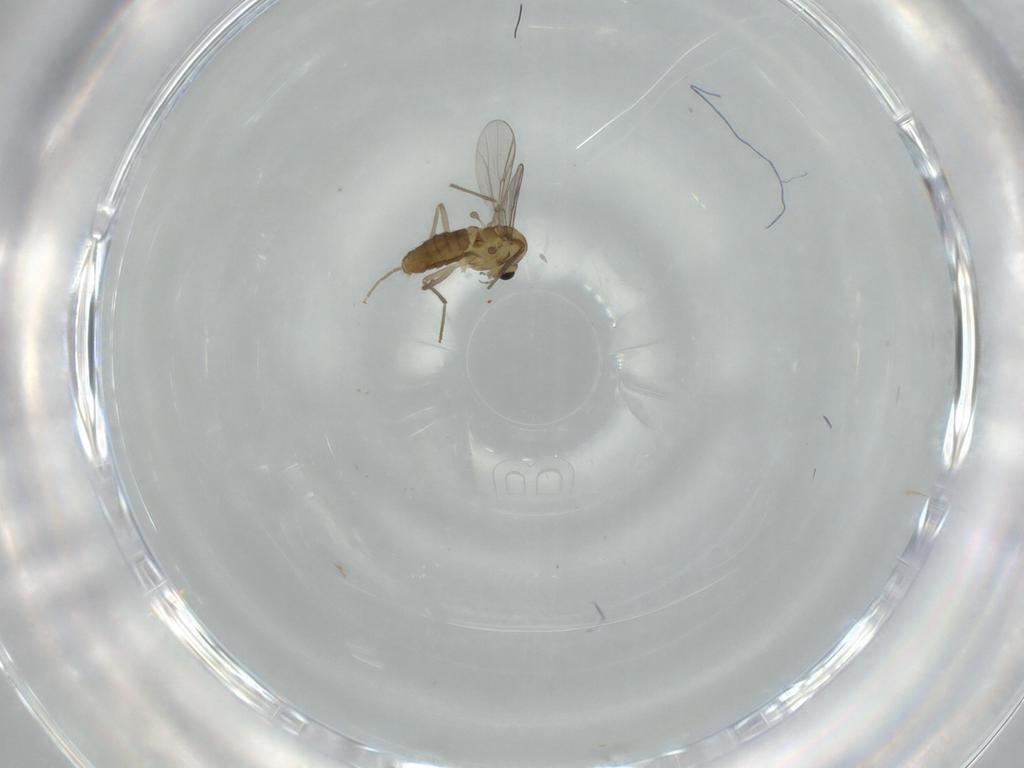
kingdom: Animalia
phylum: Arthropoda
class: Insecta
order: Diptera
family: Chironomidae
